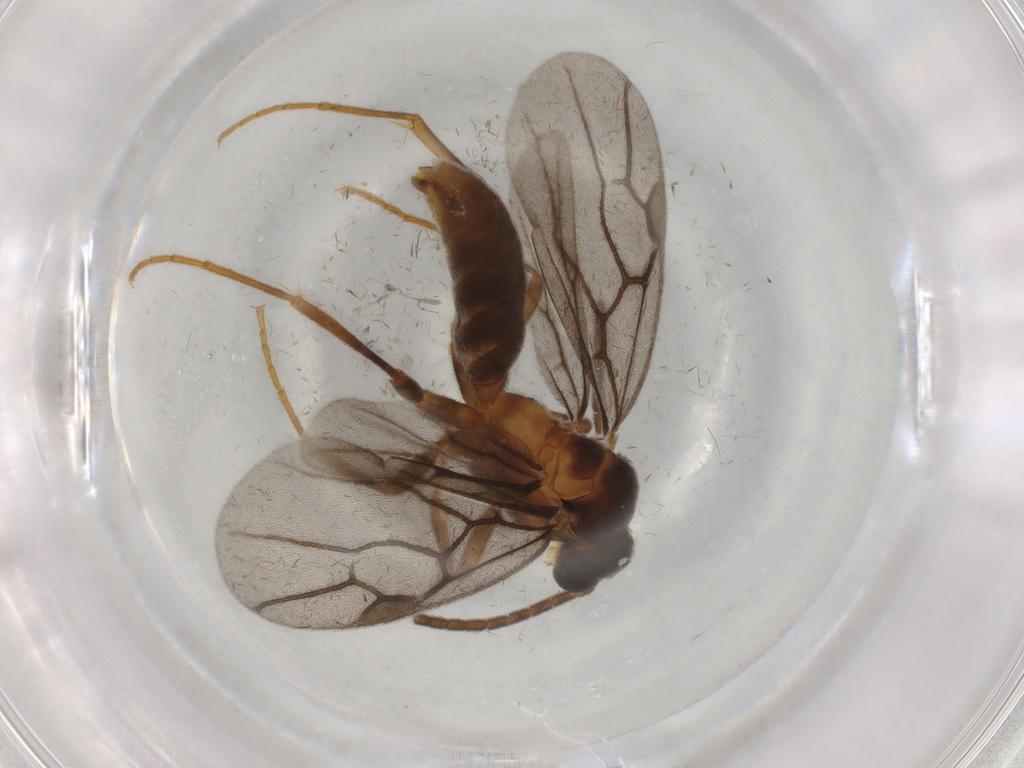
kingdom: Animalia
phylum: Arthropoda
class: Insecta
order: Hymenoptera
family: Formicidae
